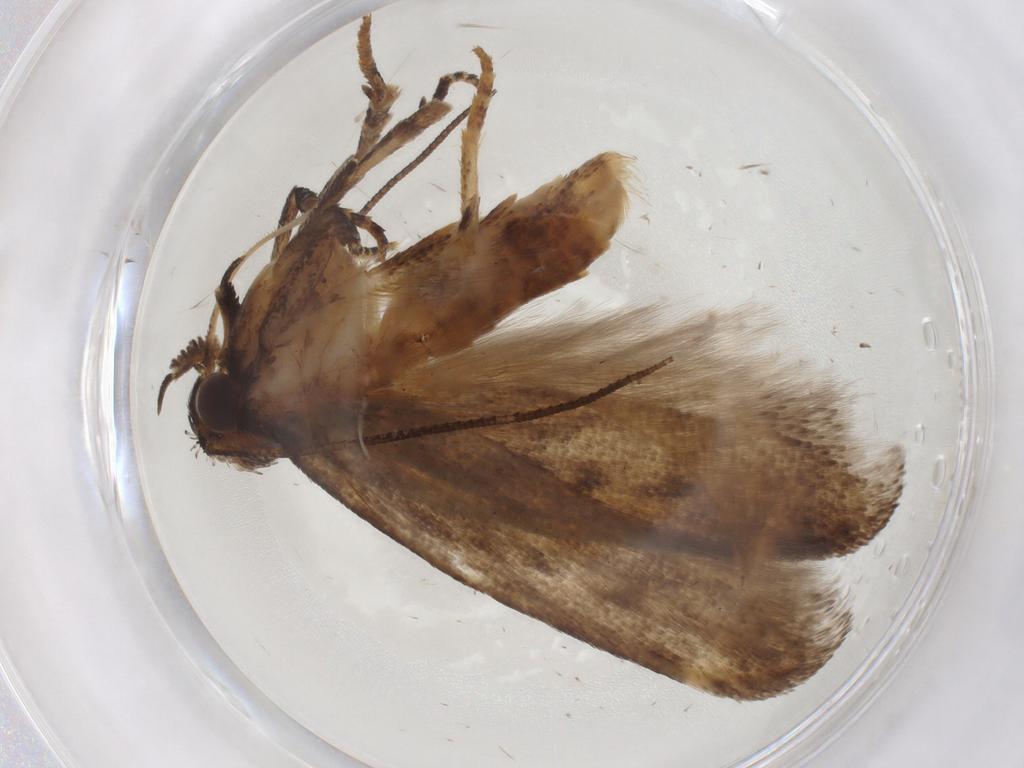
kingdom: Animalia
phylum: Arthropoda
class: Insecta
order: Lepidoptera
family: Gelechiidae
